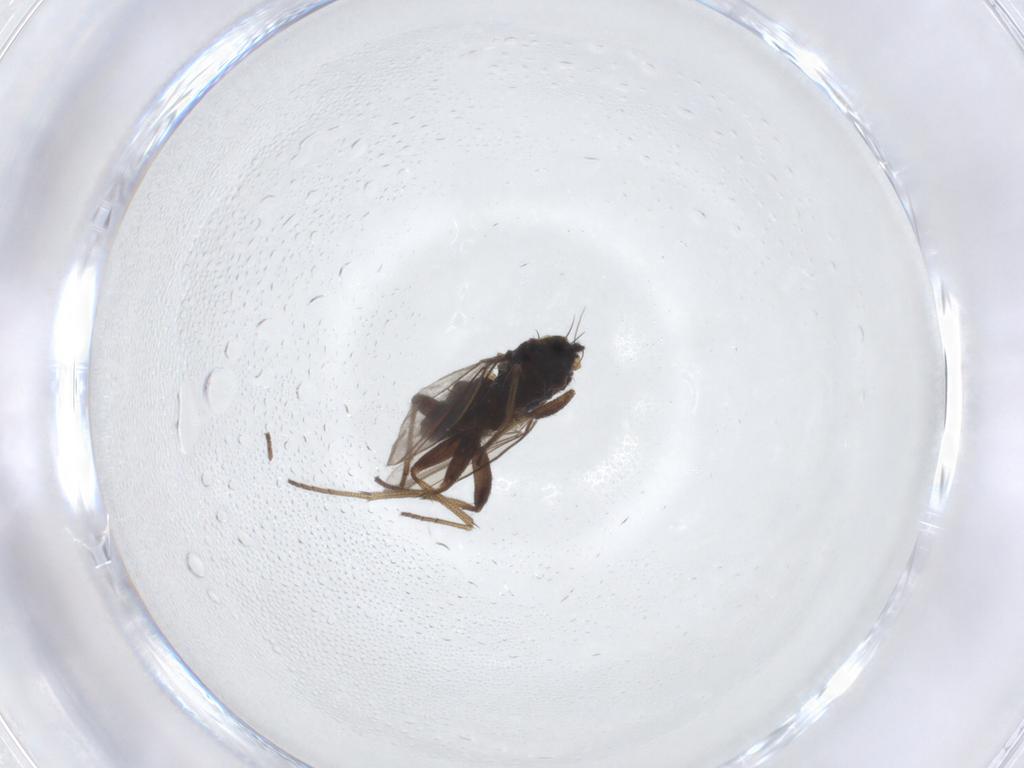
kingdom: Animalia
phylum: Arthropoda
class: Insecta
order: Diptera
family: Dolichopodidae
